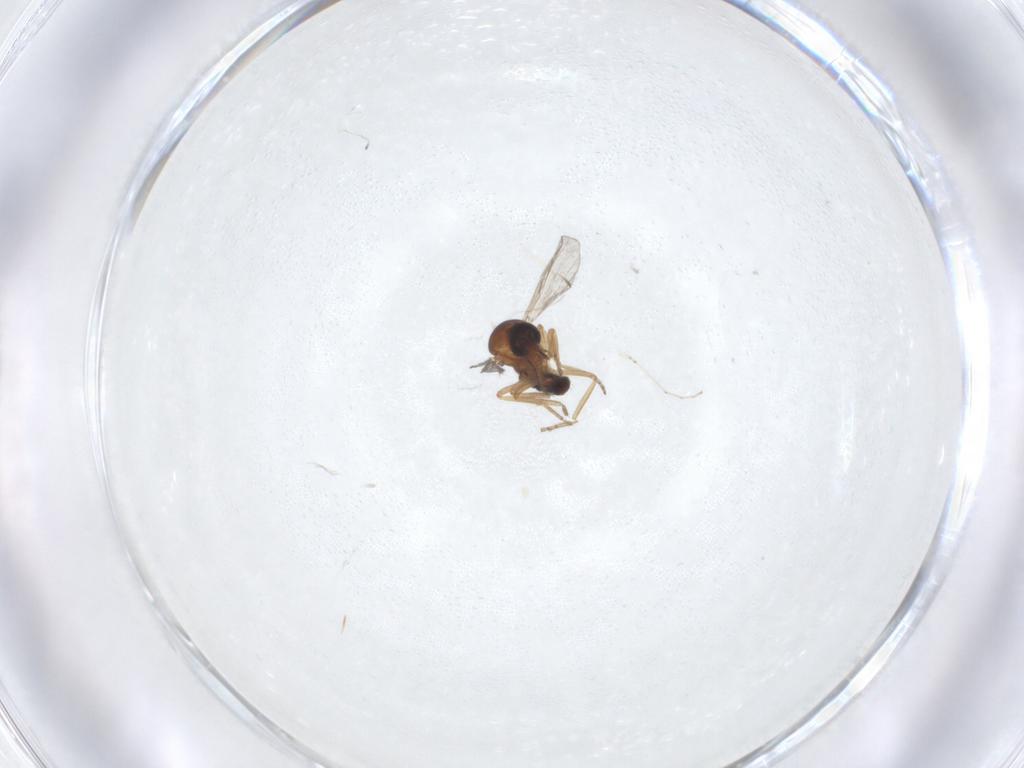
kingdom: Animalia
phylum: Arthropoda
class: Insecta
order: Diptera
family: Ceratopogonidae
